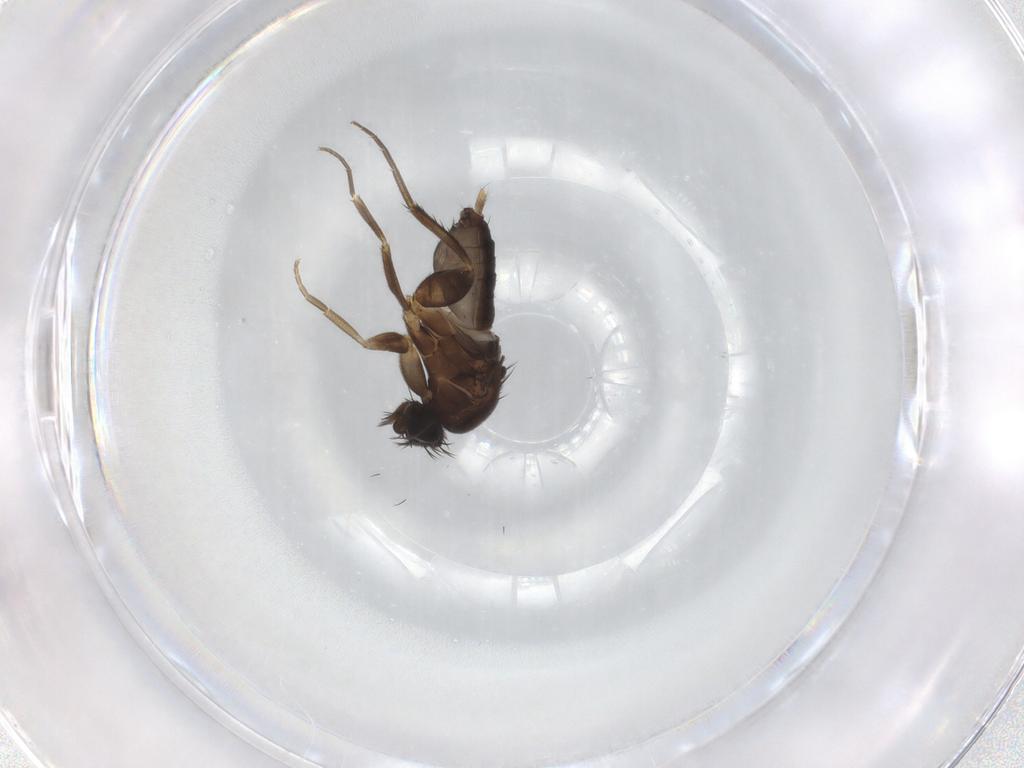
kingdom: Animalia
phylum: Arthropoda
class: Insecta
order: Diptera
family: Phoridae
